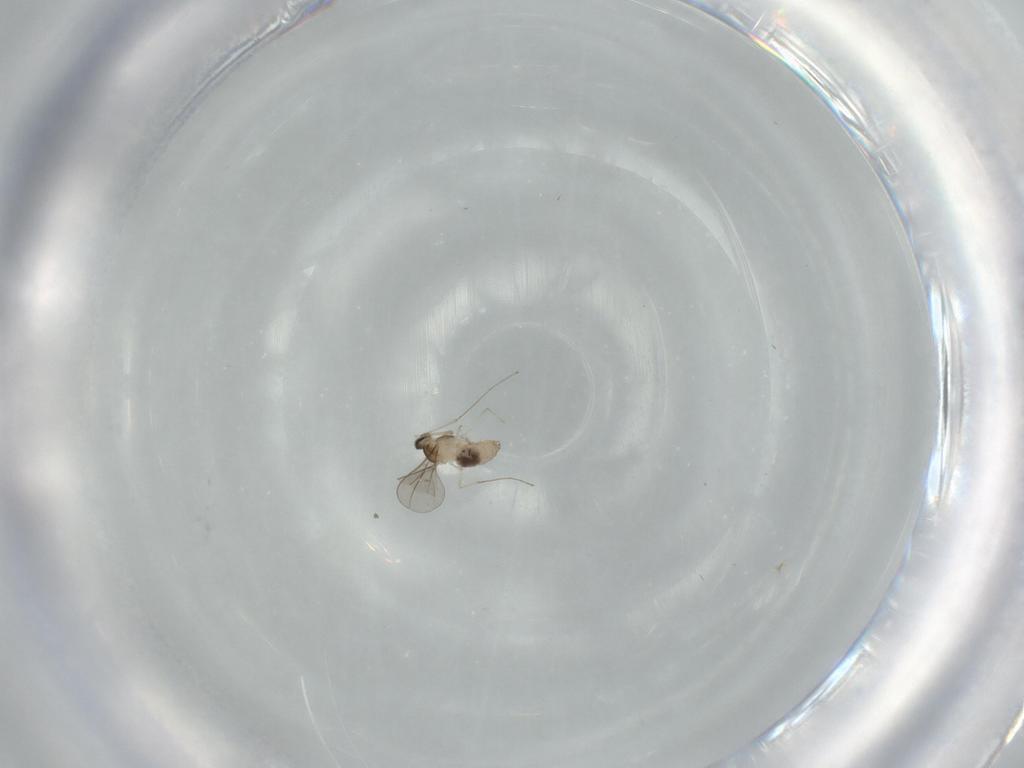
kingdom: Animalia
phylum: Arthropoda
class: Insecta
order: Diptera
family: Cecidomyiidae
